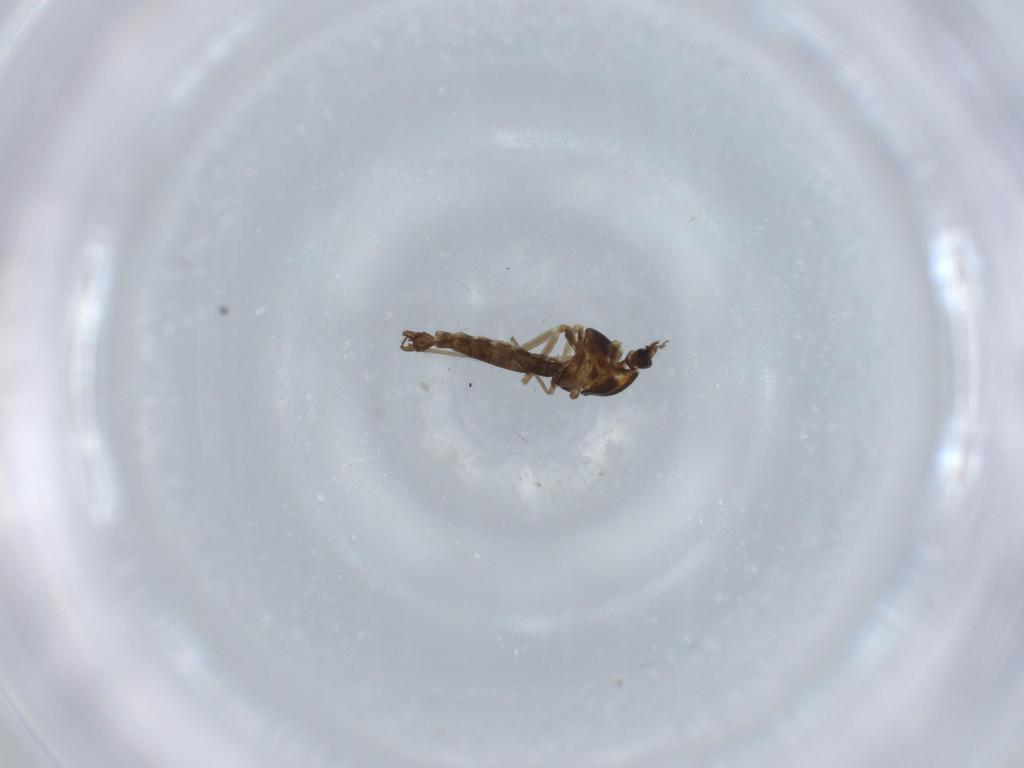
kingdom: Animalia
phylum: Arthropoda
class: Insecta
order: Diptera
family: Chironomidae
